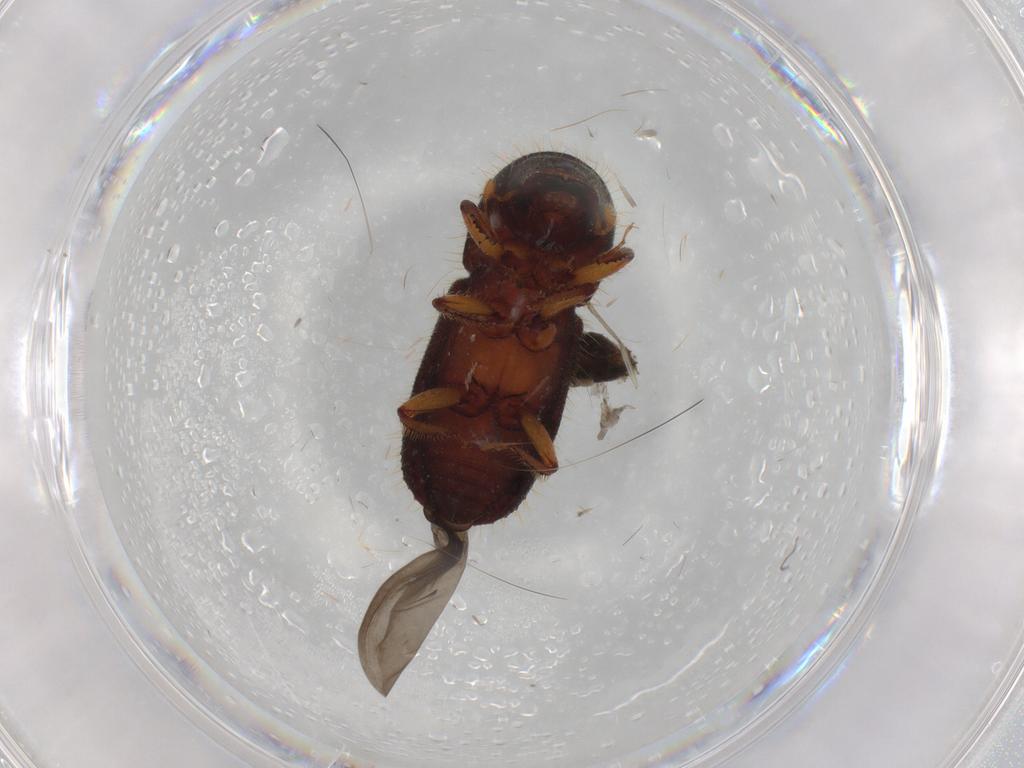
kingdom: Animalia
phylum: Arthropoda
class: Insecta
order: Coleoptera
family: Curculionidae
